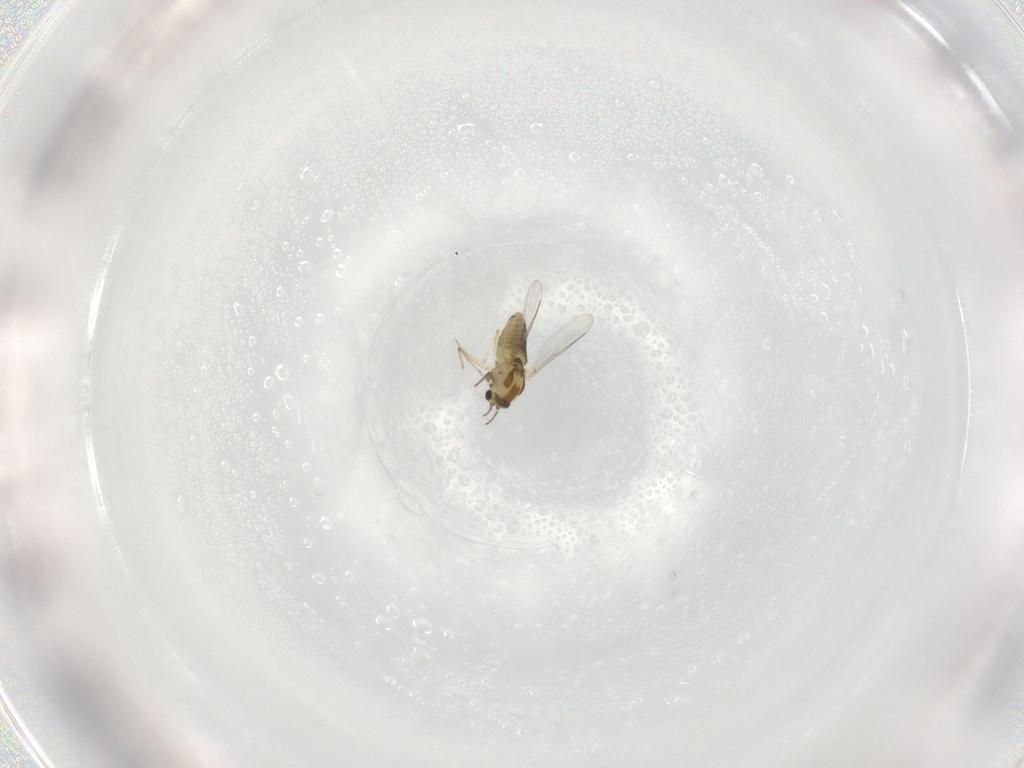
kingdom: Animalia
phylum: Arthropoda
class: Insecta
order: Diptera
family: Chironomidae
